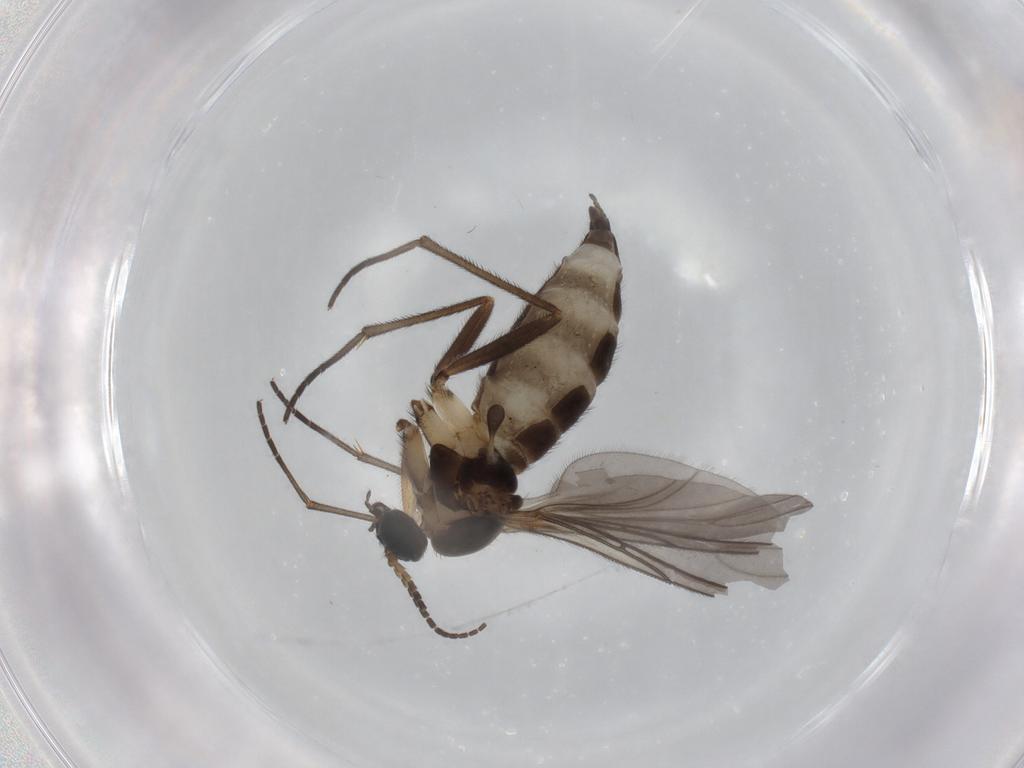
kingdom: Animalia
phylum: Arthropoda
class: Insecta
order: Diptera
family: Sciaridae
